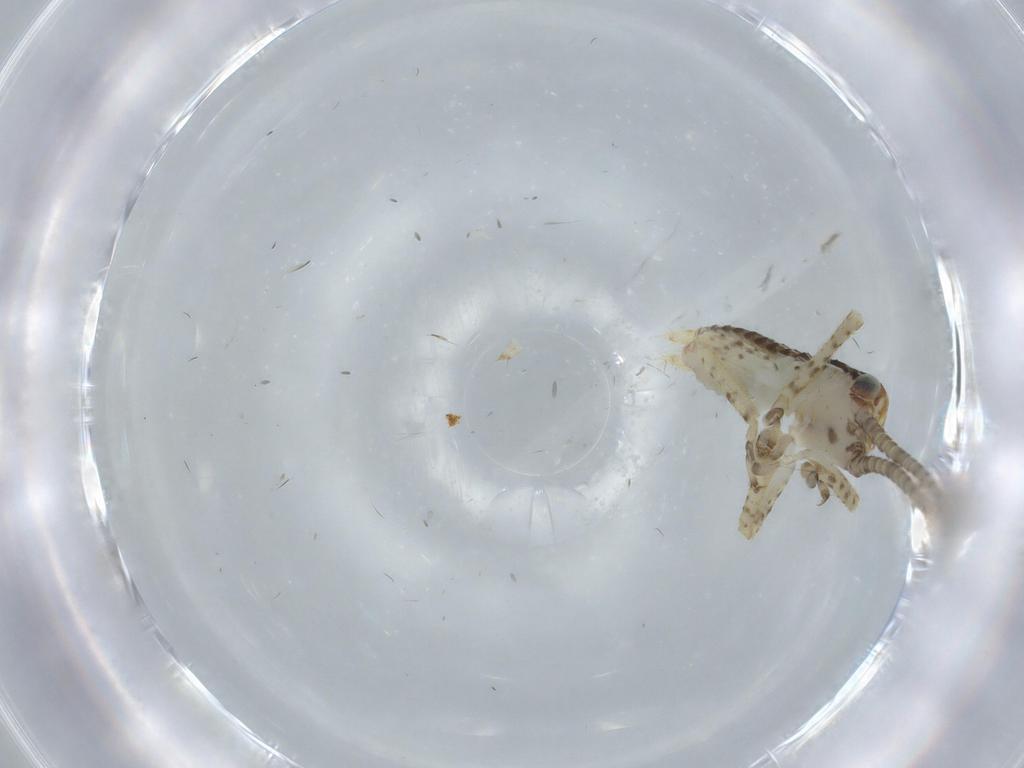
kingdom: Animalia
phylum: Arthropoda
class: Insecta
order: Orthoptera
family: Gryllidae
